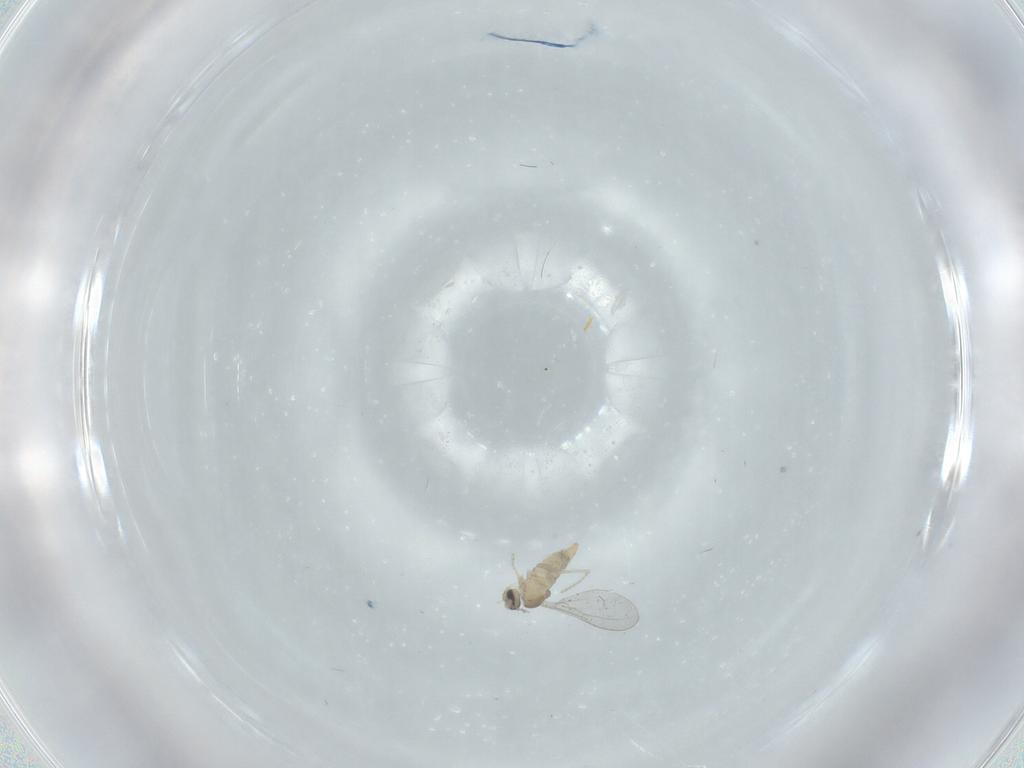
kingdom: Animalia
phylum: Arthropoda
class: Insecta
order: Diptera
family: Cecidomyiidae
